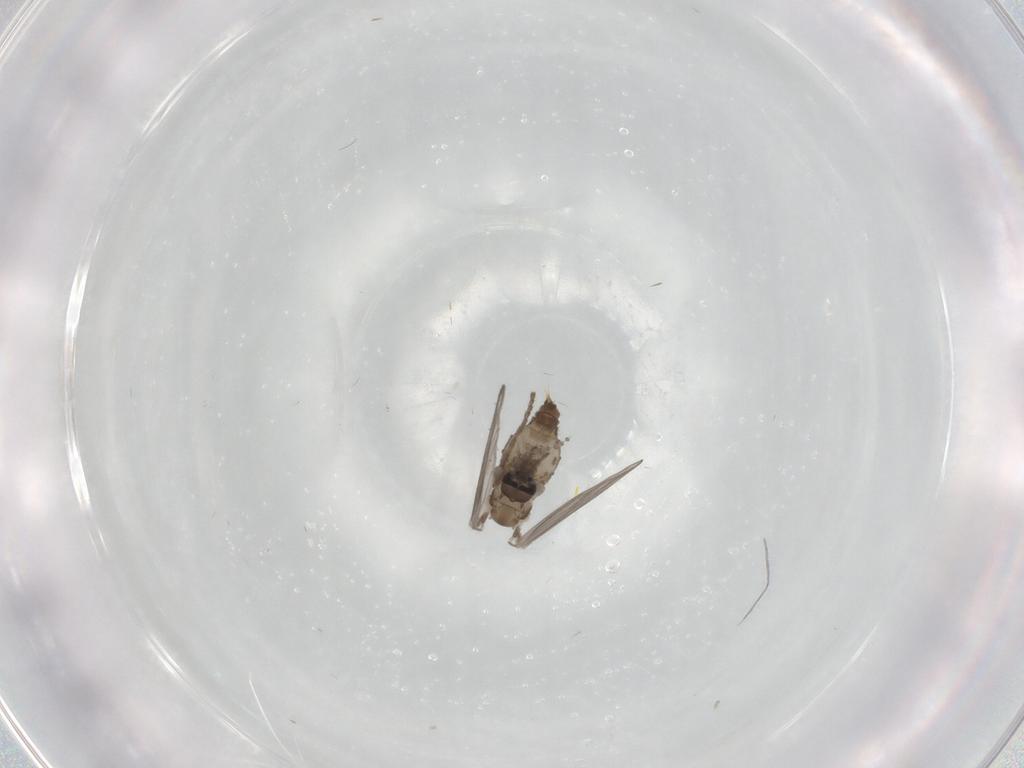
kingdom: Animalia
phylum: Arthropoda
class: Insecta
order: Diptera
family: Psychodidae
